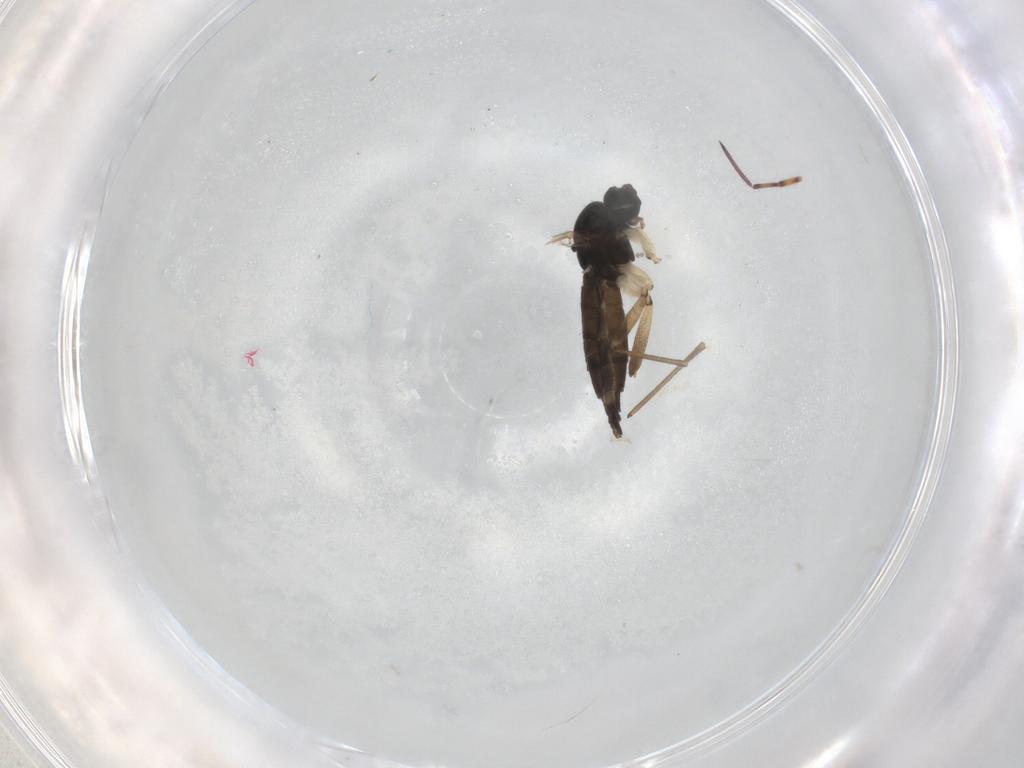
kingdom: Animalia
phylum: Arthropoda
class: Insecta
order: Diptera
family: Sciaridae
